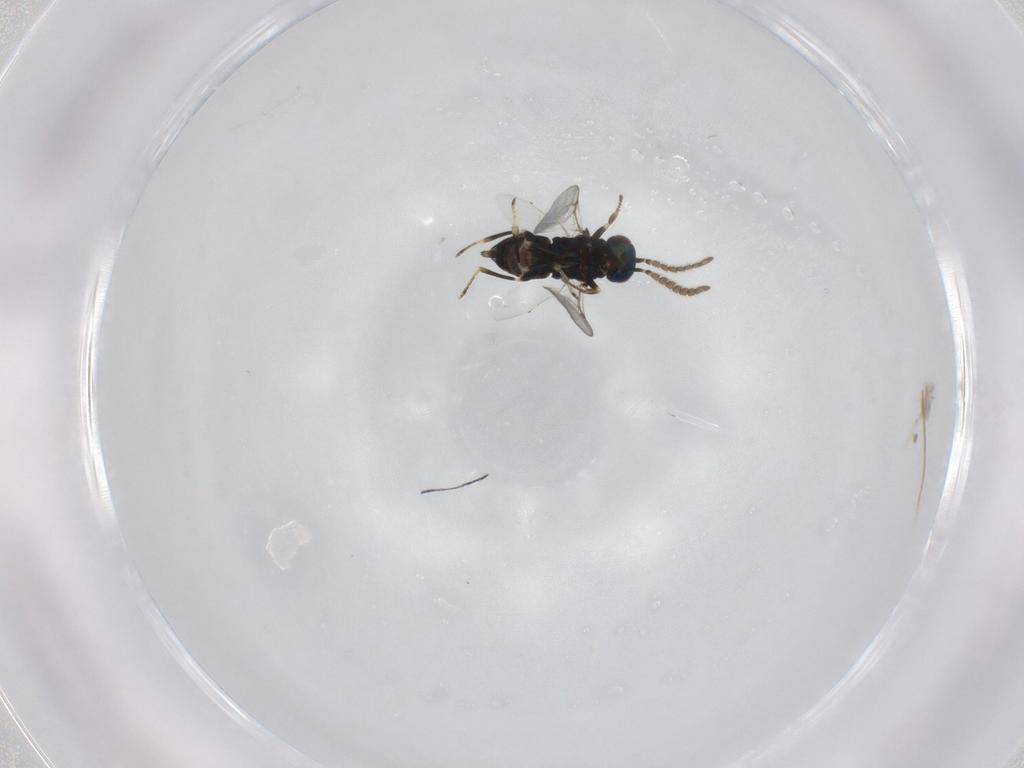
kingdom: Animalia
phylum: Arthropoda
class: Insecta
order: Hymenoptera
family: Encyrtidae
